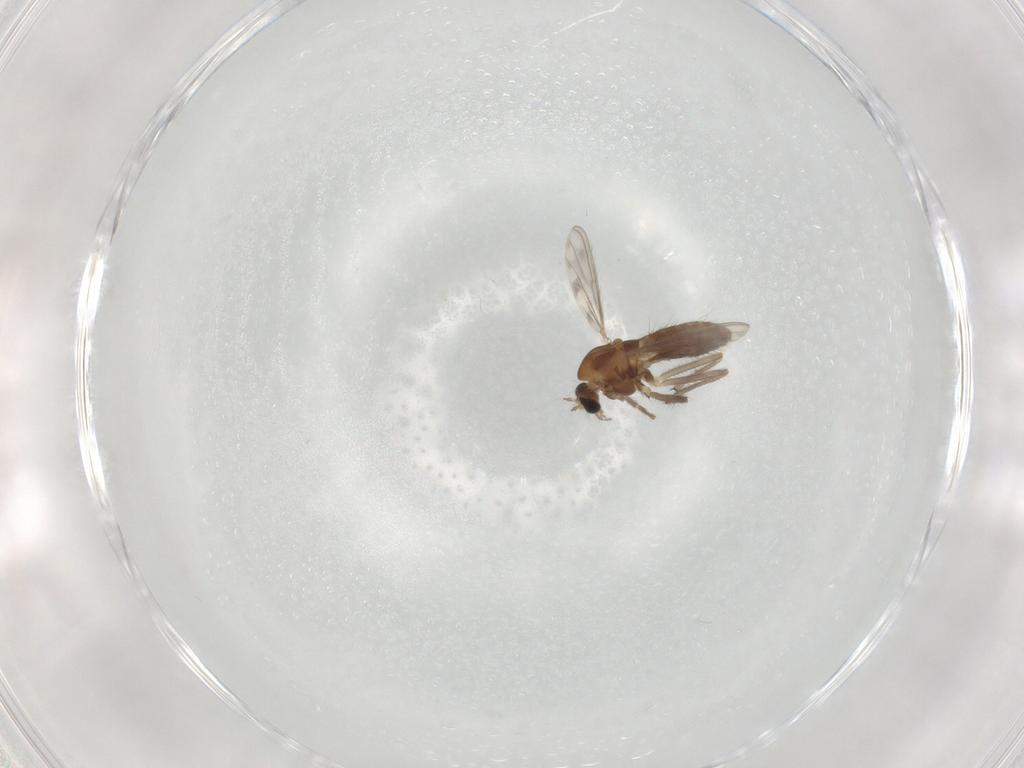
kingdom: Animalia
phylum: Arthropoda
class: Insecta
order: Diptera
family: Chironomidae
